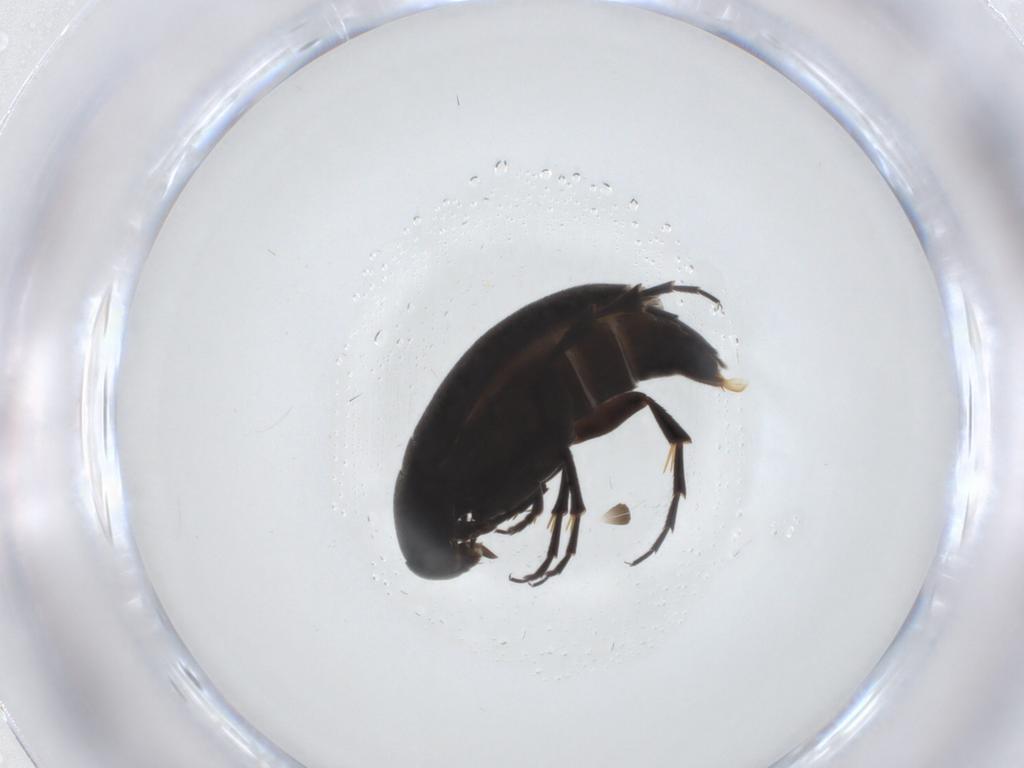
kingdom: Animalia
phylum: Arthropoda
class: Insecta
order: Coleoptera
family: Scraptiidae
